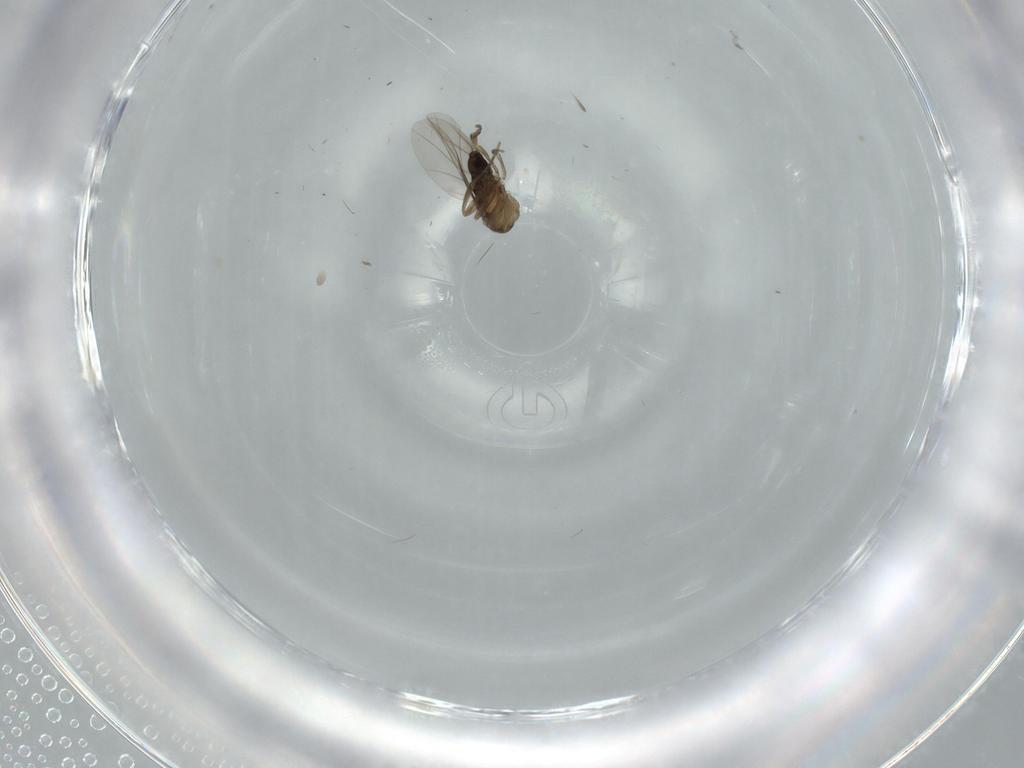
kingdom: Animalia
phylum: Arthropoda
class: Insecta
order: Diptera
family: Phoridae
